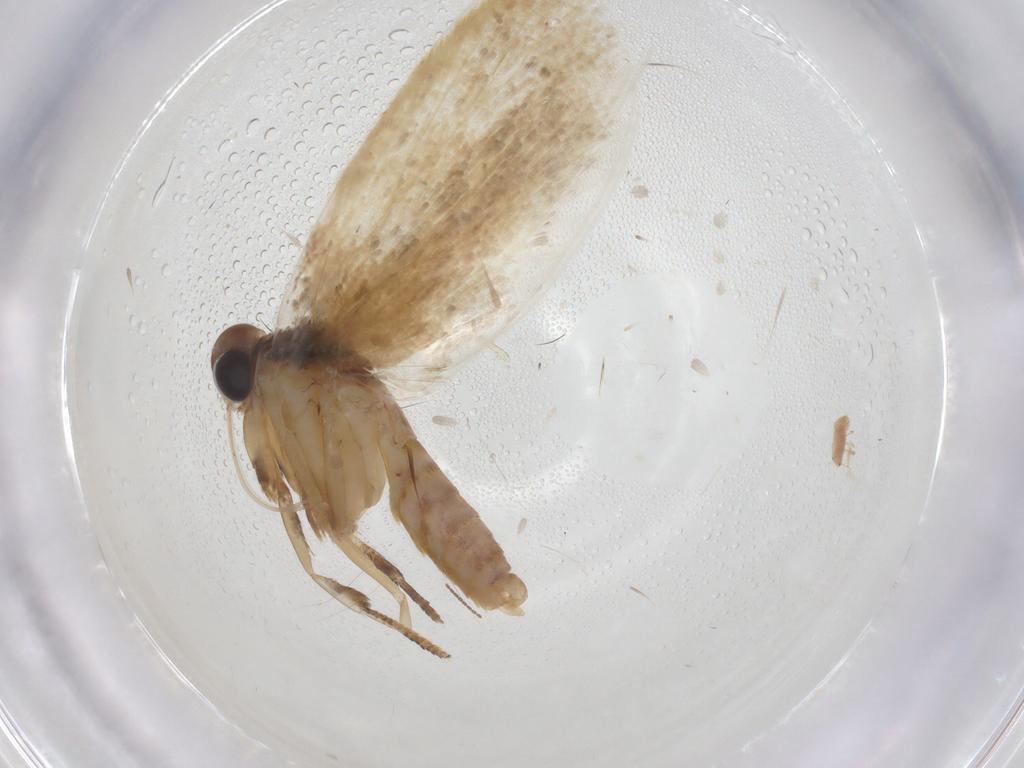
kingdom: Animalia
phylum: Arthropoda
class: Insecta
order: Lepidoptera
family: Oecophoridae
